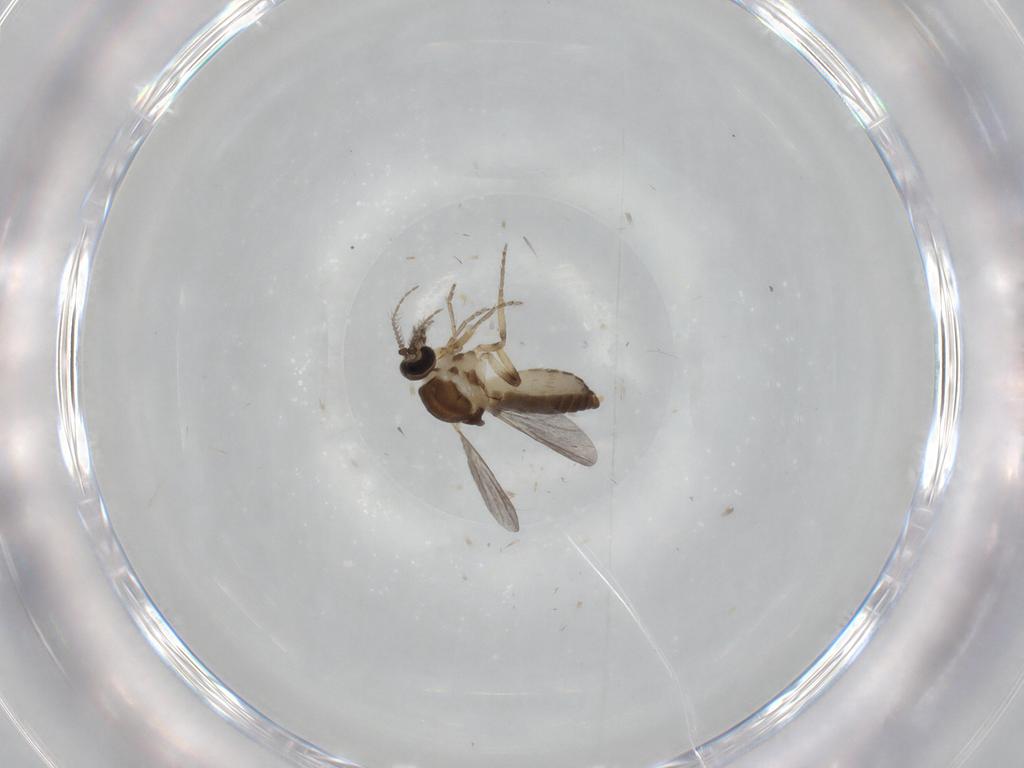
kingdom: Animalia
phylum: Arthropoda
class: Insecta
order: Diptera
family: Ceratopogonidae
